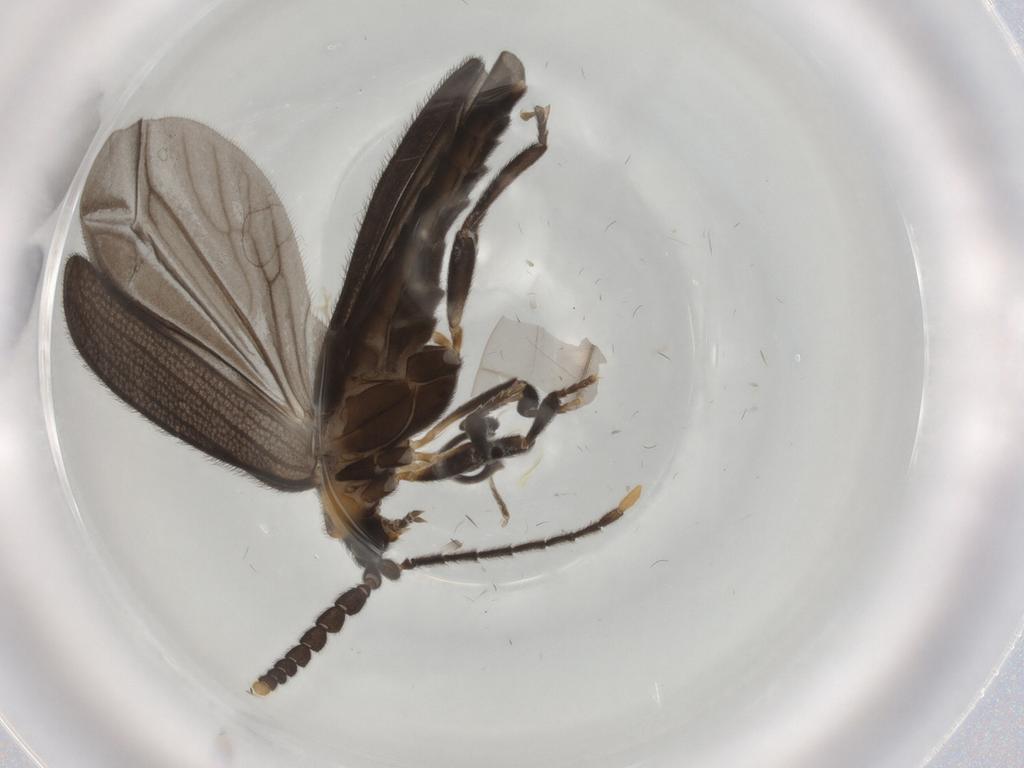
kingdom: Animalia
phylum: Arthropoda
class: Insecta
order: Coleoptera
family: Lycidae
